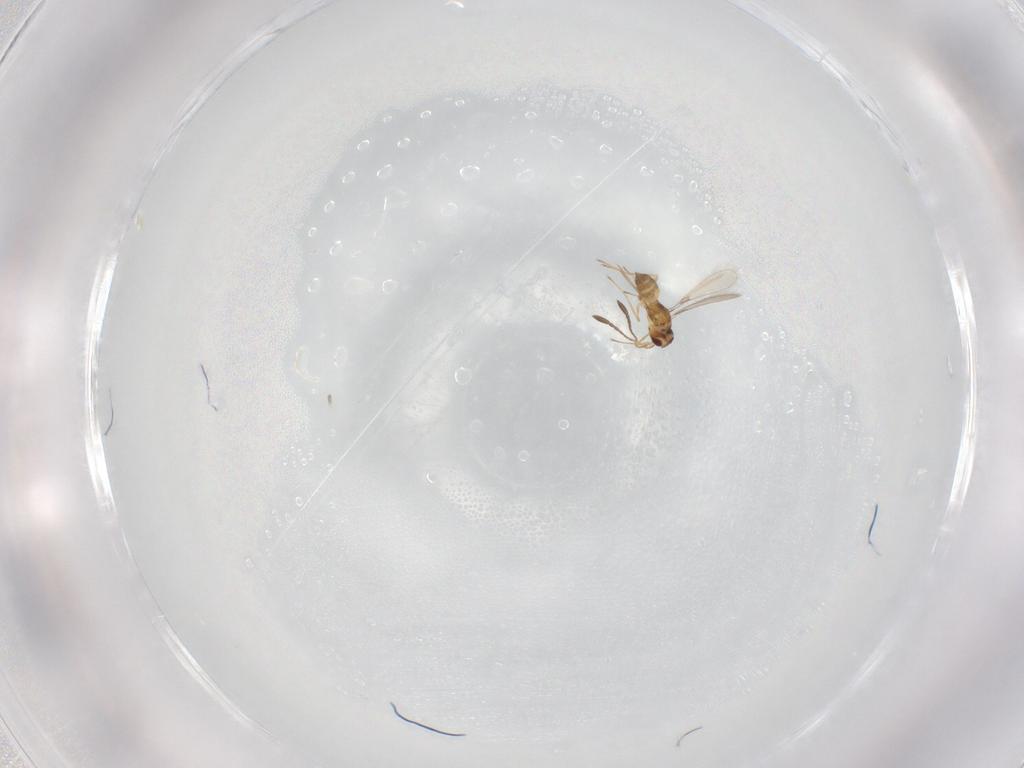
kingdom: Animalia
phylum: Arthropoda
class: Insecta
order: Hymenoptera
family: Mymaridae
